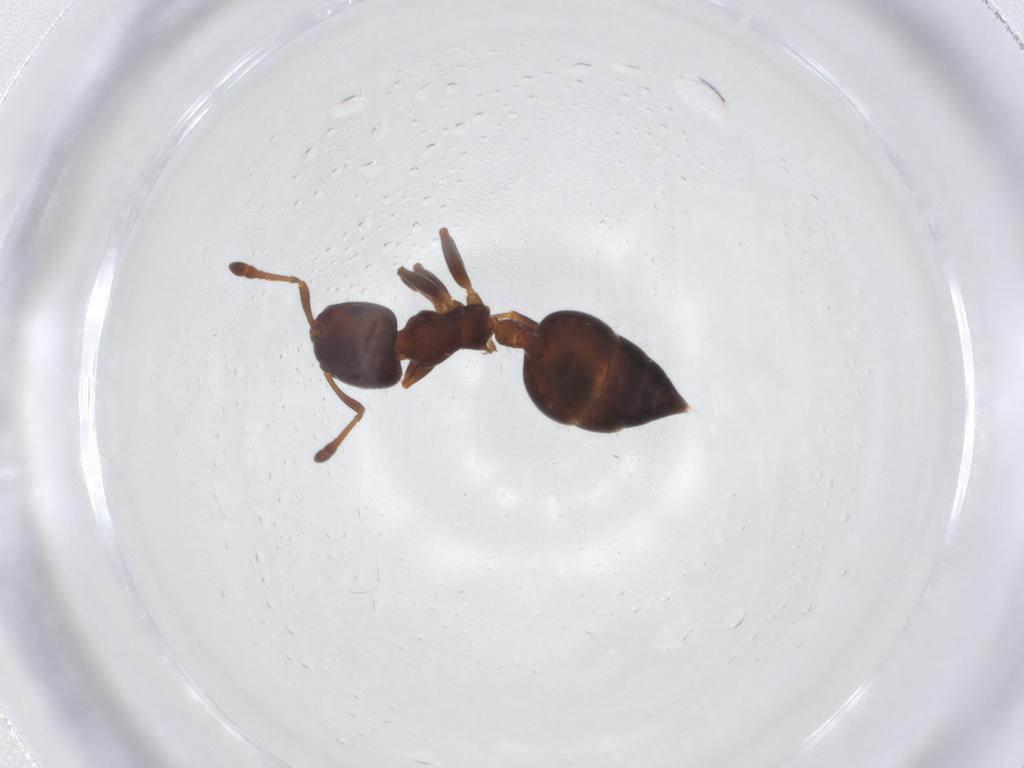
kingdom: Animalia
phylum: Arthropoda
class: Insecta
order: Hymenoptera
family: Formicidae
